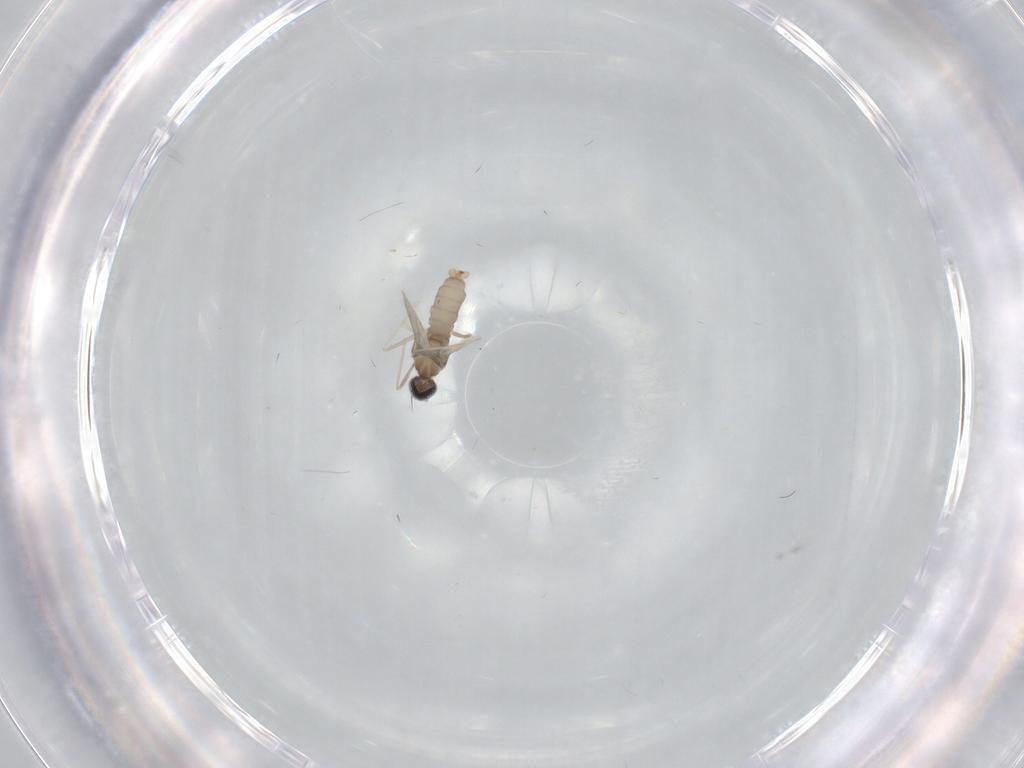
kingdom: Animalia
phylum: Arthropoda
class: Insecta
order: Diptera
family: Cecidomyiidae
